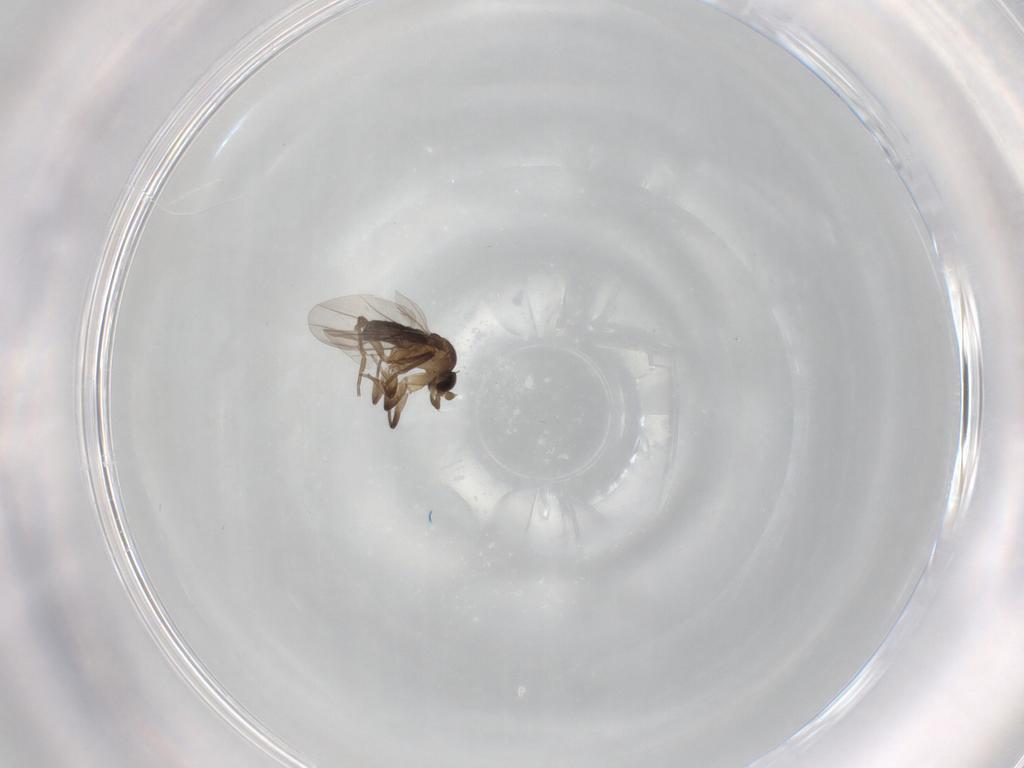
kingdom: Animalia
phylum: Arthropoda
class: Insecta
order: Diptera
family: Phoridae
